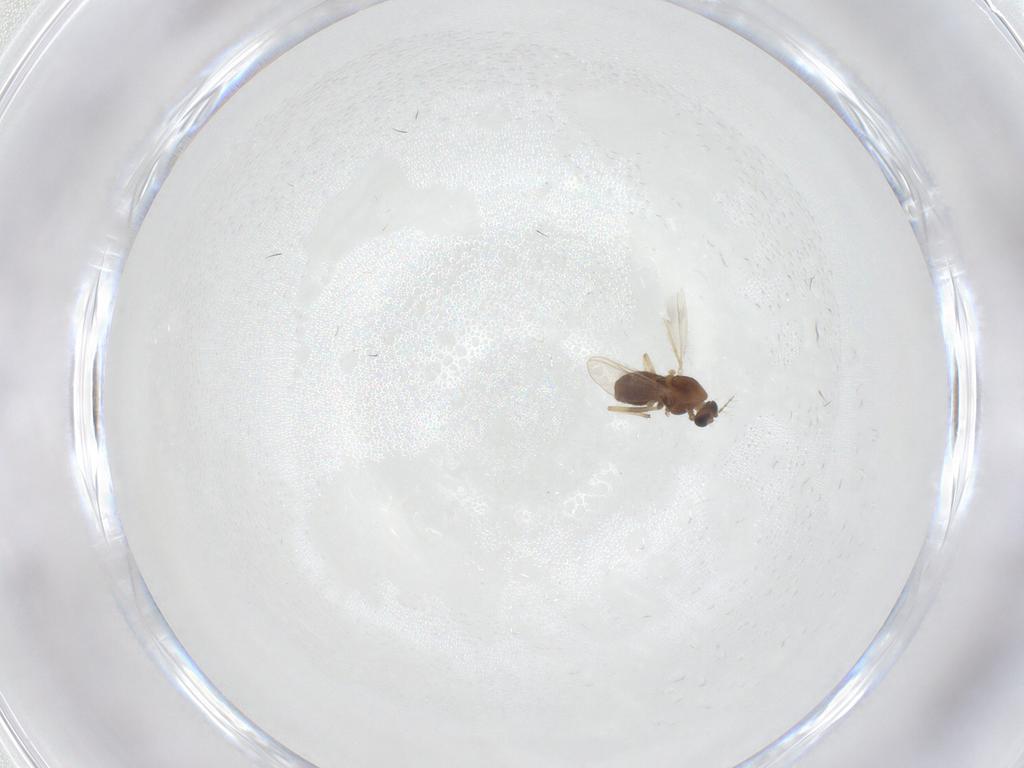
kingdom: Animalia
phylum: Arthropoda
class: Insecta
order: Diptera
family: Chironomidae
